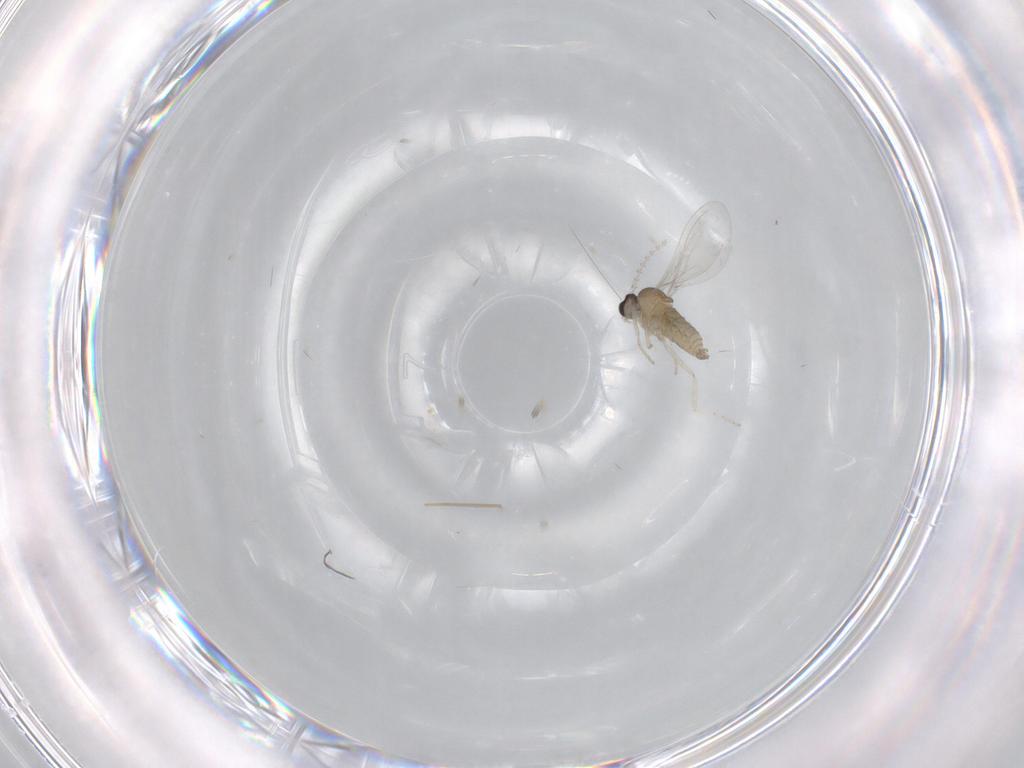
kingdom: Animalia
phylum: Arthropoda
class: Insecta
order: Diptera
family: Cecidomyiidae
